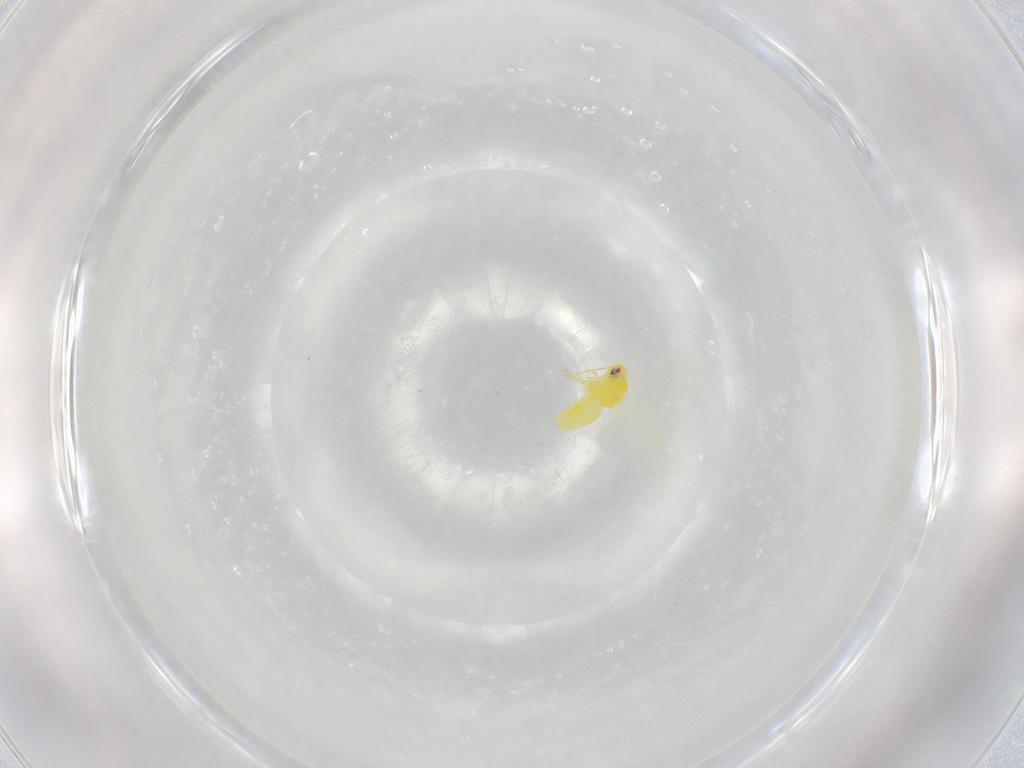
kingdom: Animalia
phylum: Arthropoda
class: Insecta
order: Hemiptera
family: Aleyrodidae
